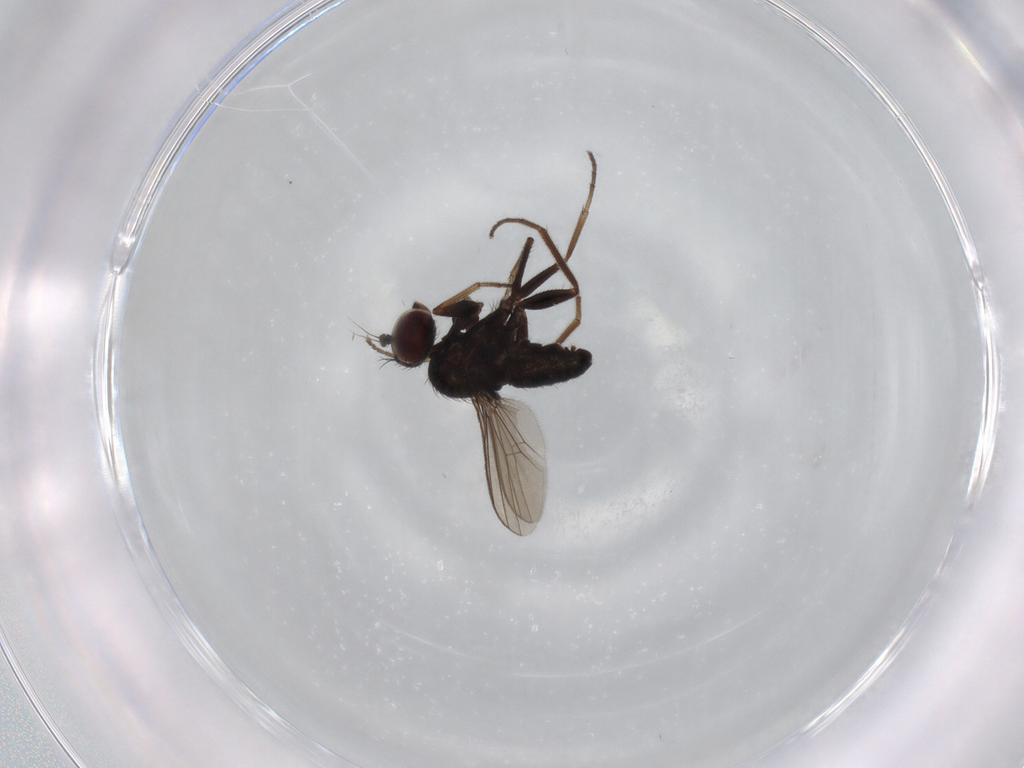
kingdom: Animalia
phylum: Arthropoda
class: Insecta
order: Diptera
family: Dolichopodidae
